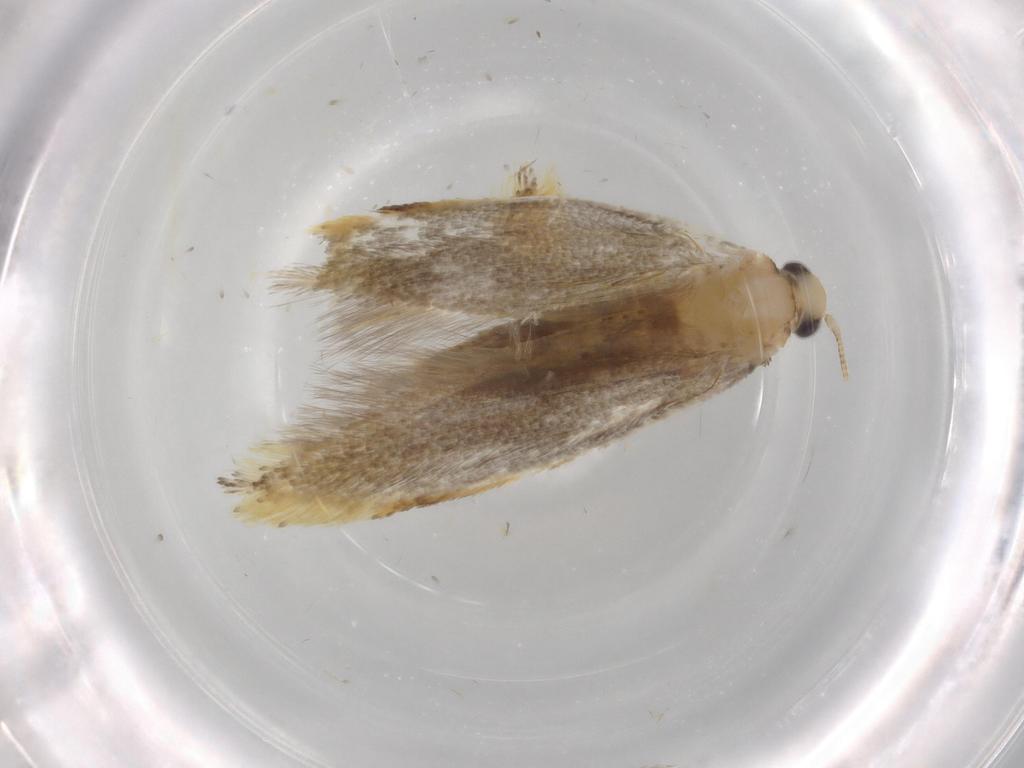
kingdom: Animalia
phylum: Arthropoda
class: Insecta
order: Lepidoptera
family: Tineidae
